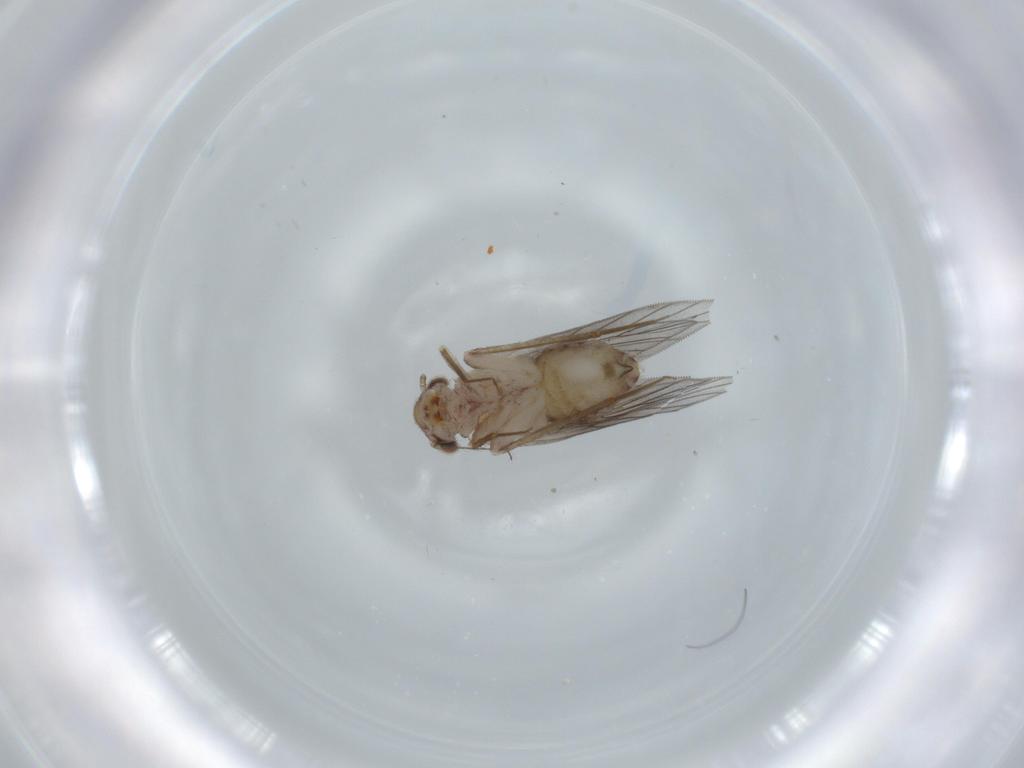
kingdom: Animalia
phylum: Arthropoda
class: Insecta
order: Psocodea
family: Lepidopsocidae
